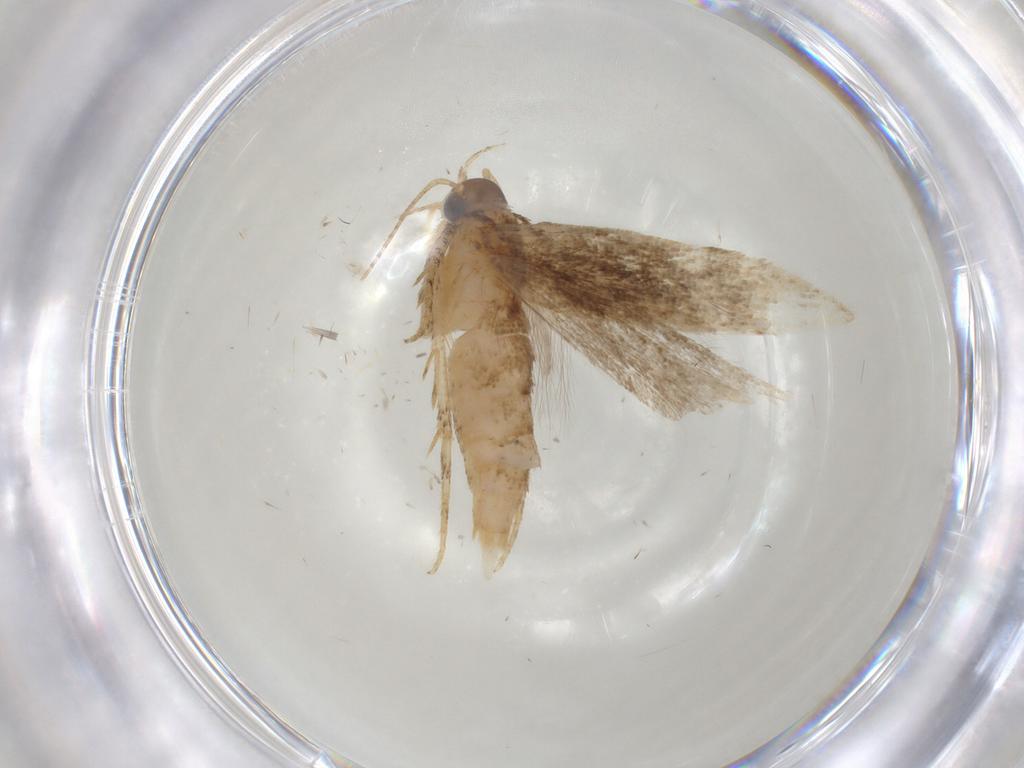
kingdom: Animalia
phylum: Arthropoda
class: Insecta
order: Lepidoptera
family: Gelechiidae
